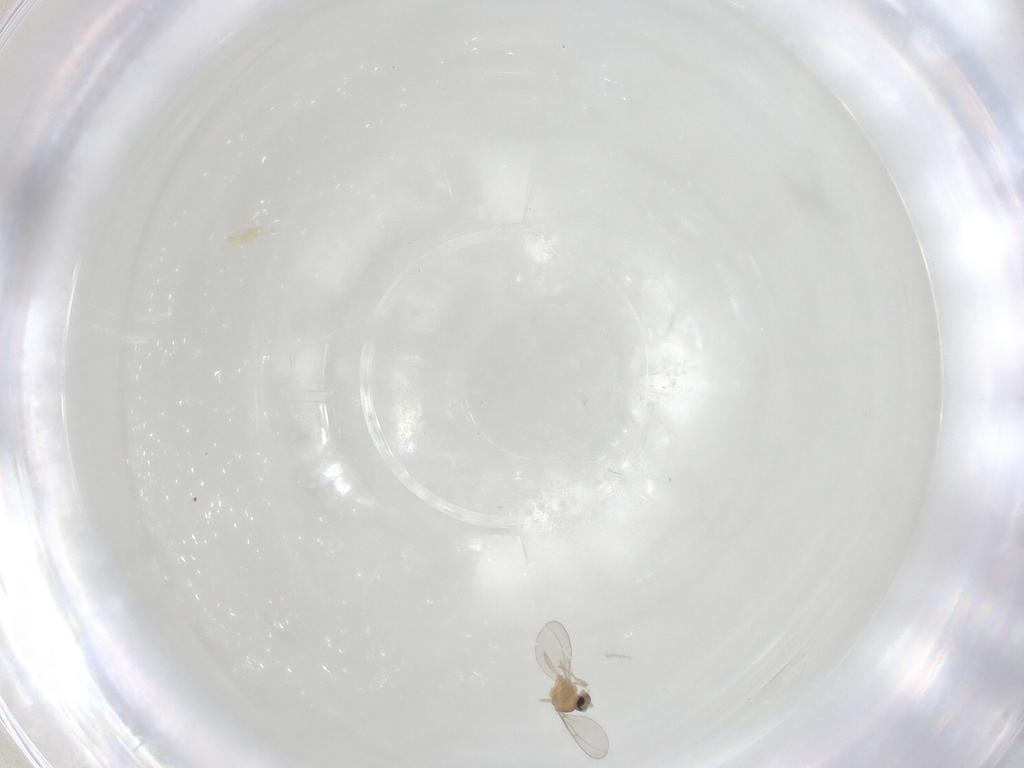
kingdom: Animalia
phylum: Arthropoda
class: Insecta
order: Diptera
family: Cecidomyiidae
